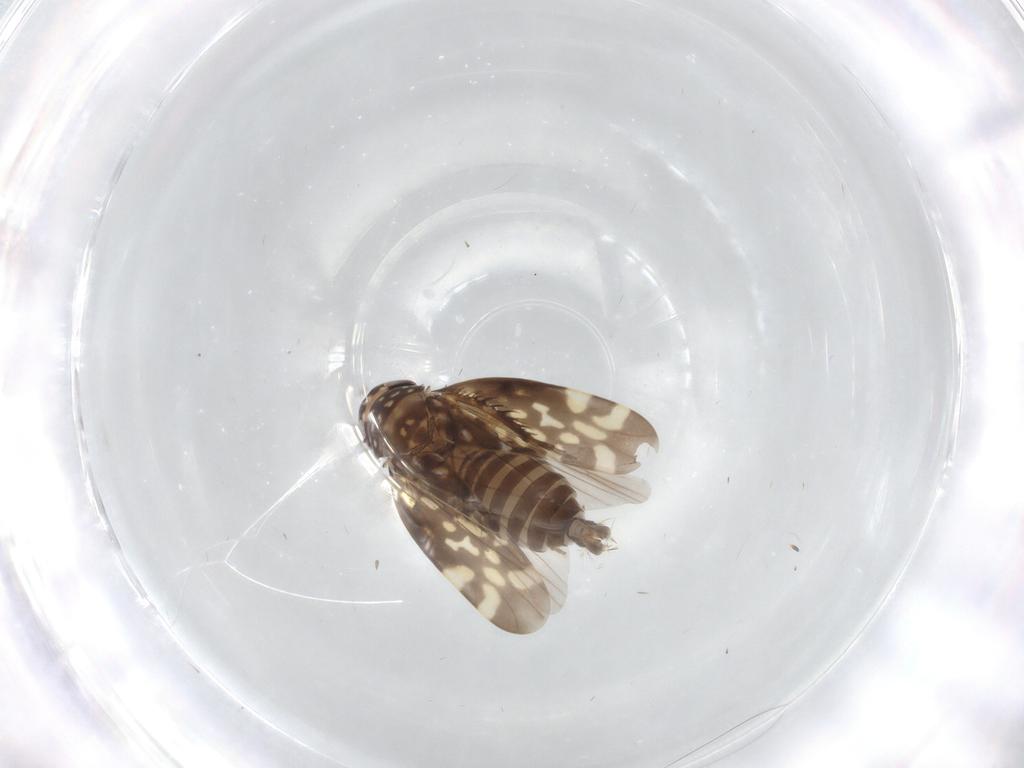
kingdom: Animalia
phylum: Arthropoda
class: Insecta
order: Hemiptera
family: Cicadellidae
